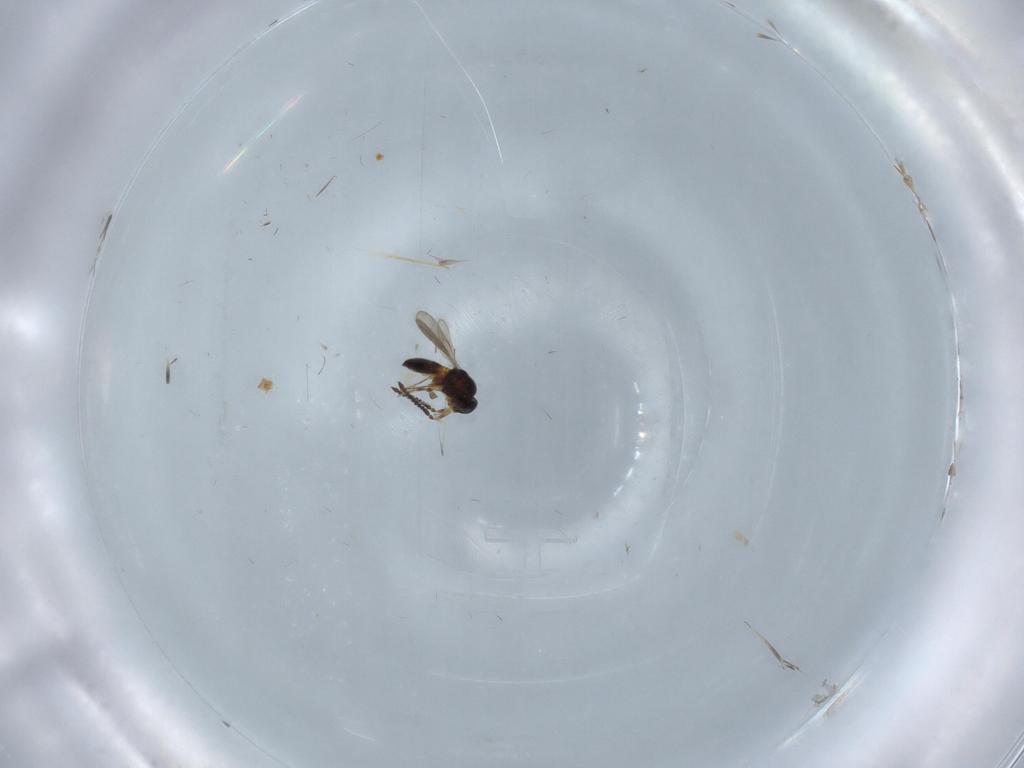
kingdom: Animalia
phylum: Arthropoda
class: Insecta
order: Hymenoptera
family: Scelionidae
